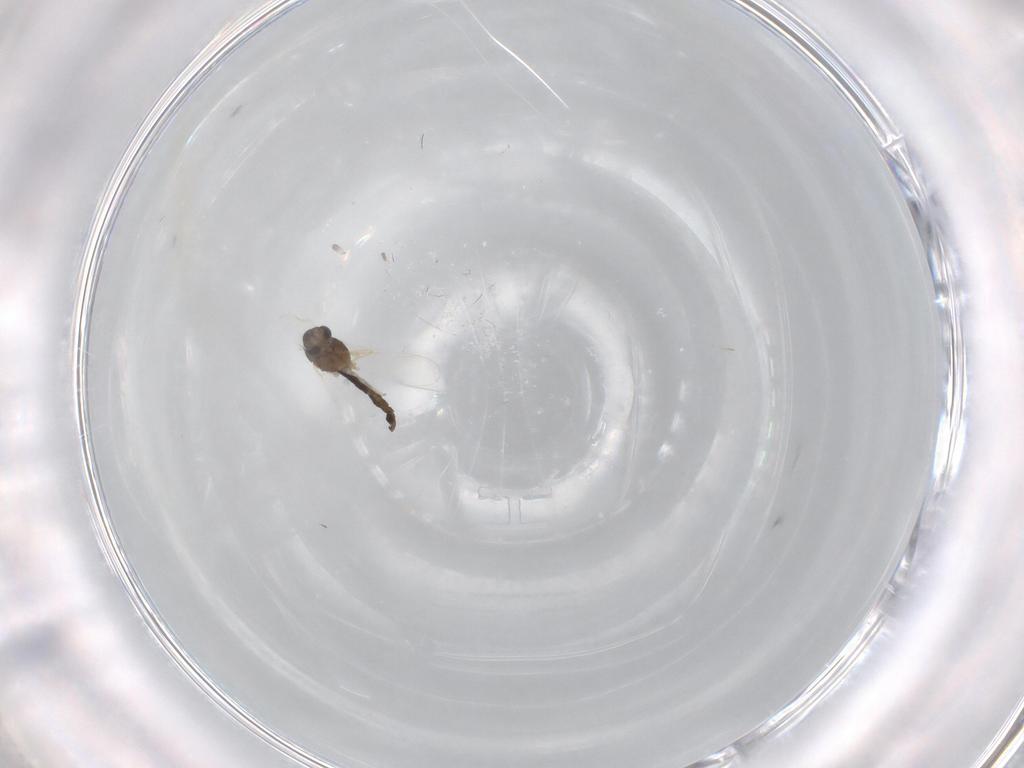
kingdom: Animalia
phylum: Arthropoda
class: Insecta
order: Diptera
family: Chironomidae
